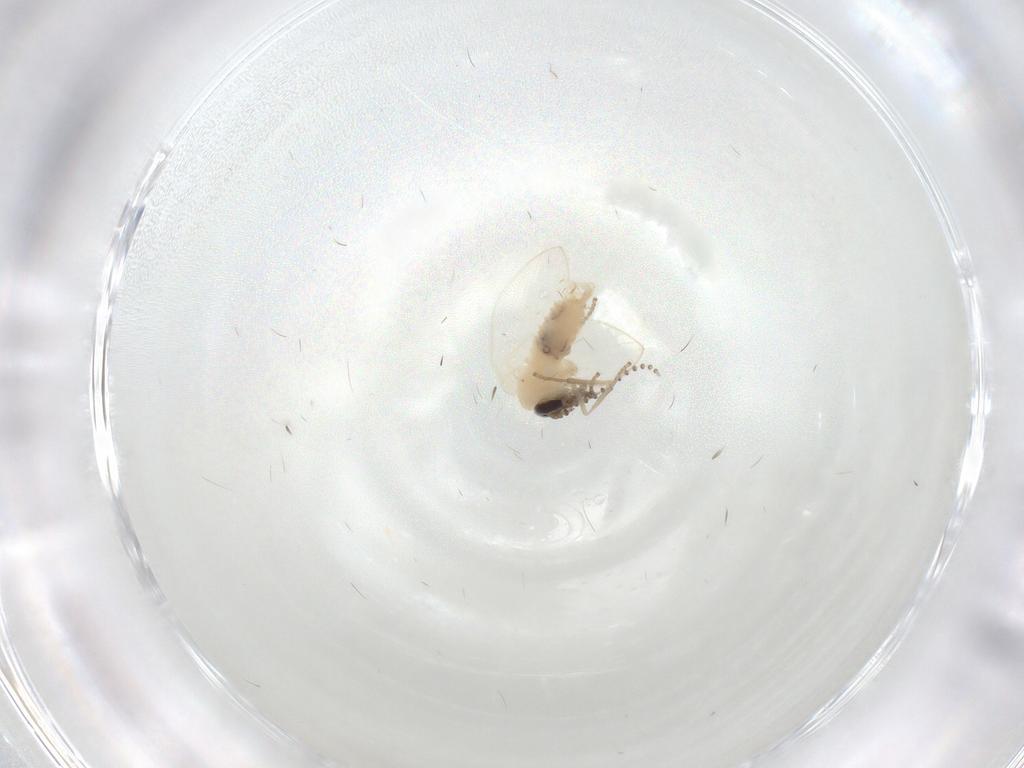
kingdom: Animalia
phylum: Arthropoda
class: Insecta
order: Diptera
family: Psychodidae
